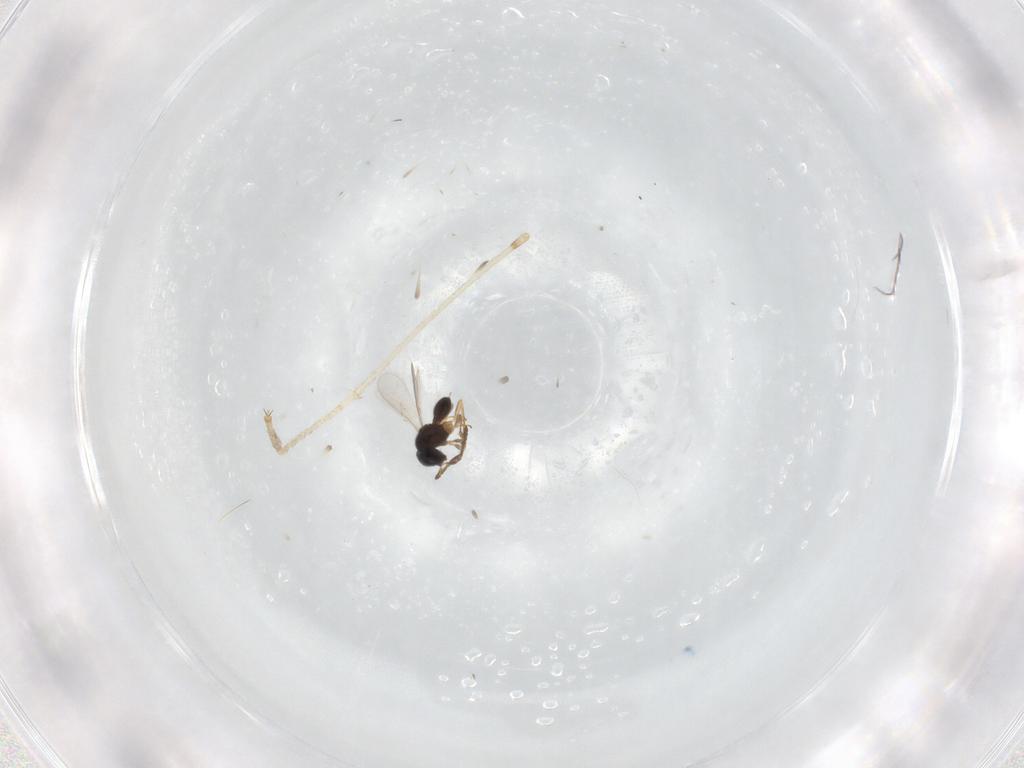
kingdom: Animalia
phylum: Arthropoda
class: Insecta
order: Hymenoptera
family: Scelionidae
